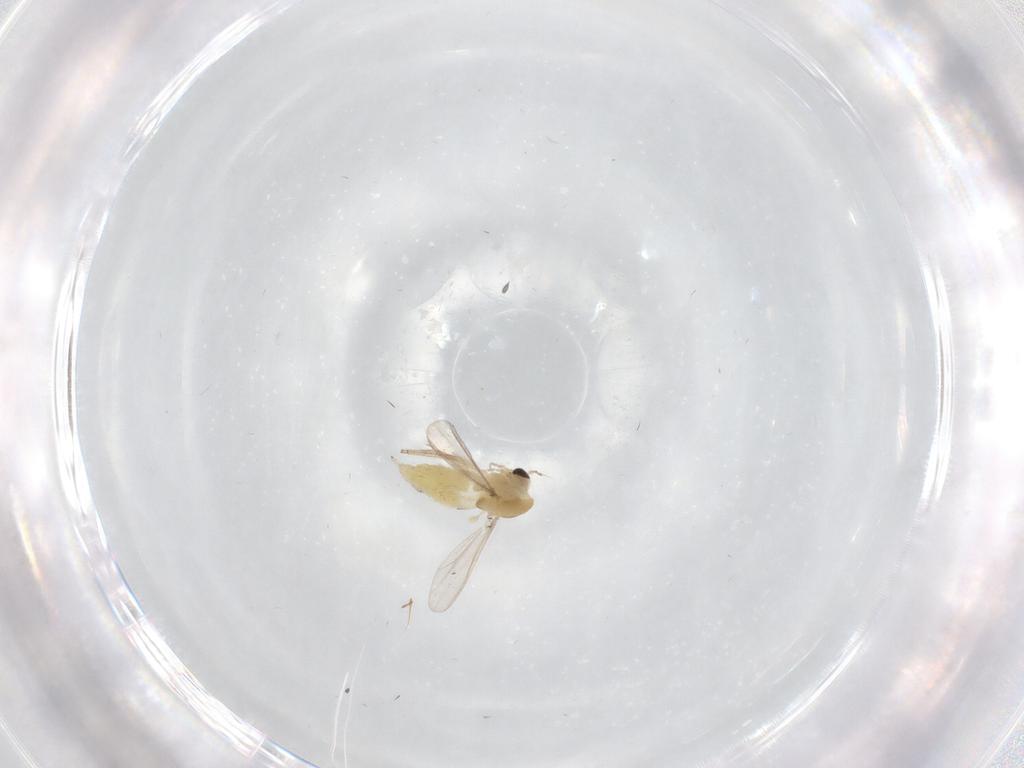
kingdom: Animalia
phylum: Arthropoda
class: Insecta
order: Diptera
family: Chironomidae
